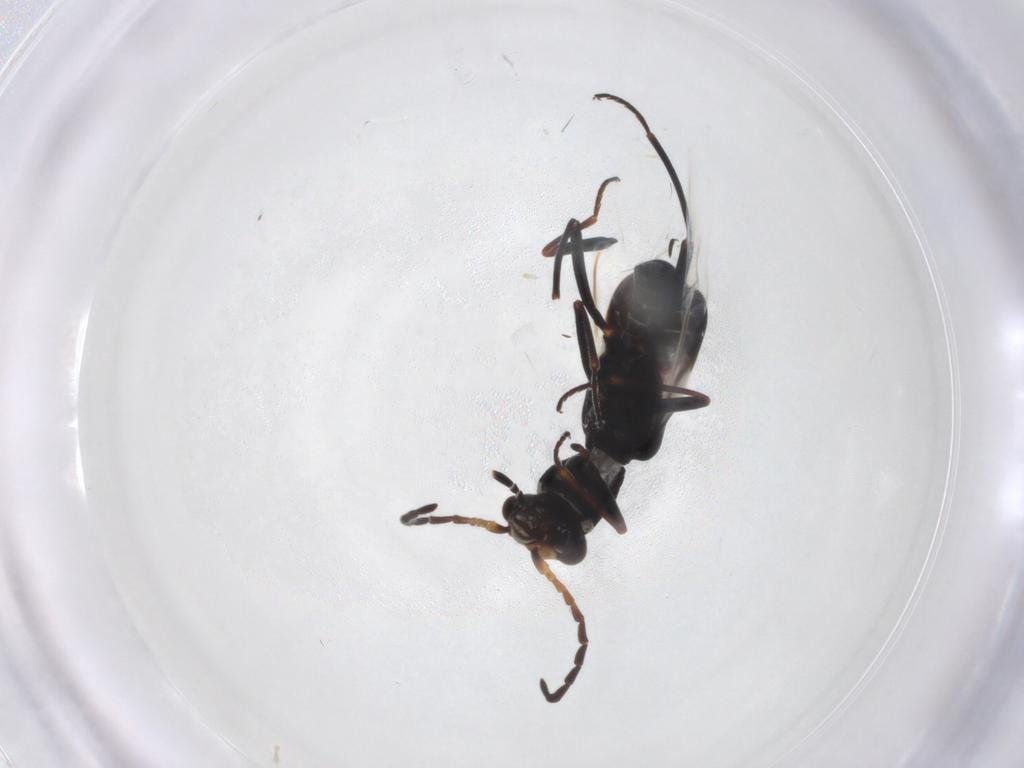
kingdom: Animalia
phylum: Arthropoda
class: Insecta
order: Coleoptera
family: Melyridae
